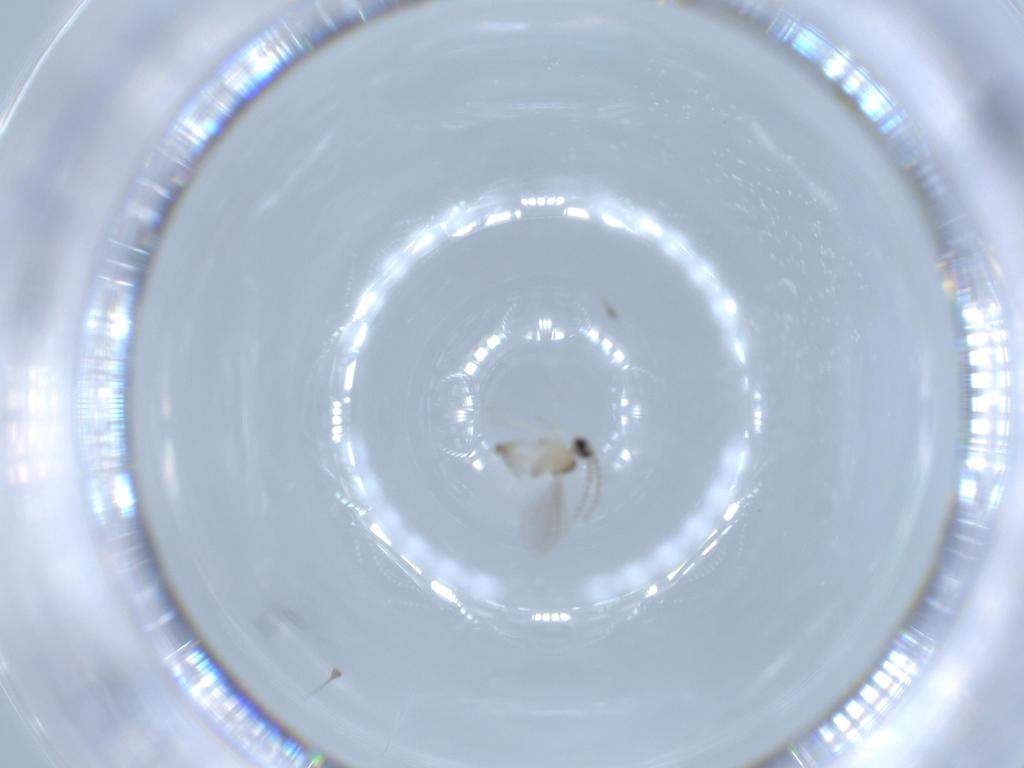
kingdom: Animalia
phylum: Arthropoda
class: Insecta
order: Diptera
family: Cecidomyiidae
